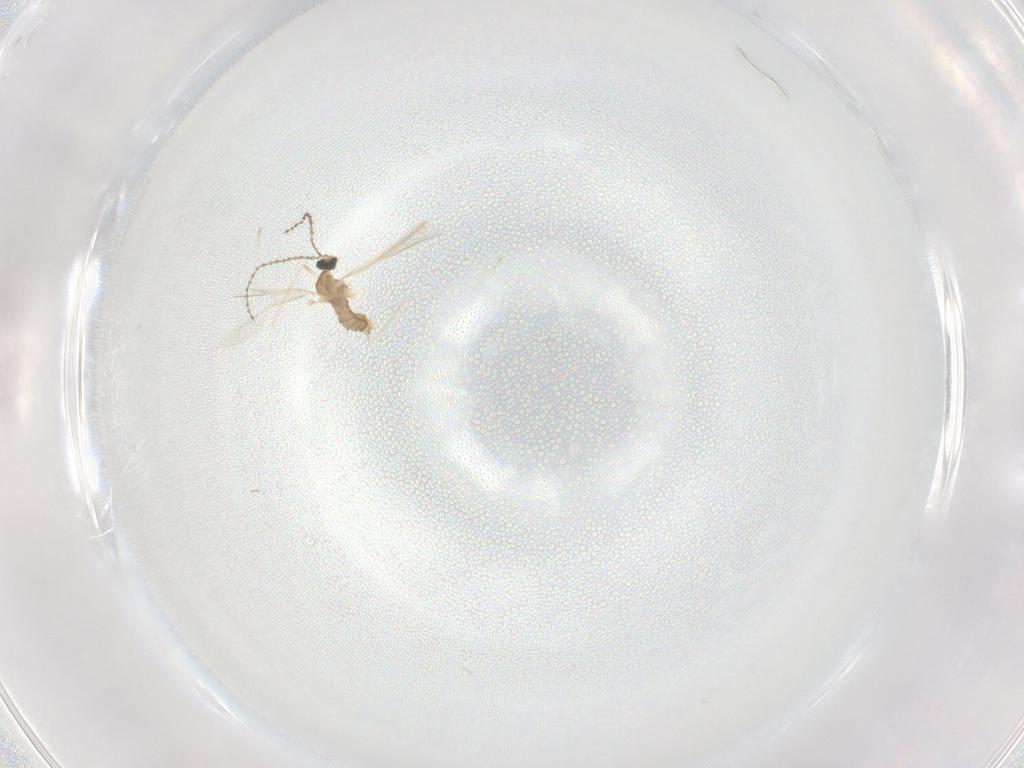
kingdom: Animalia
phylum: Arthropoda
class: Insecta
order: Diptera
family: Cecidomyiidae
